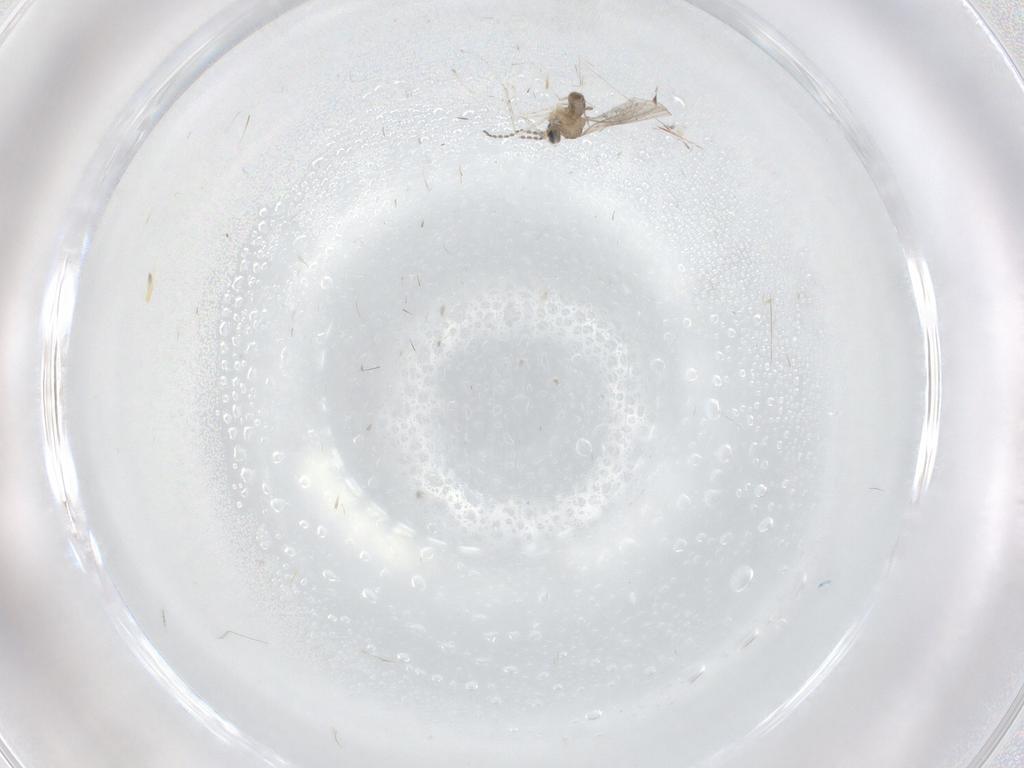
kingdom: Animalia
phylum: Arthropoda
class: Insecta
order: Diptera
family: Cecidomyiidae
